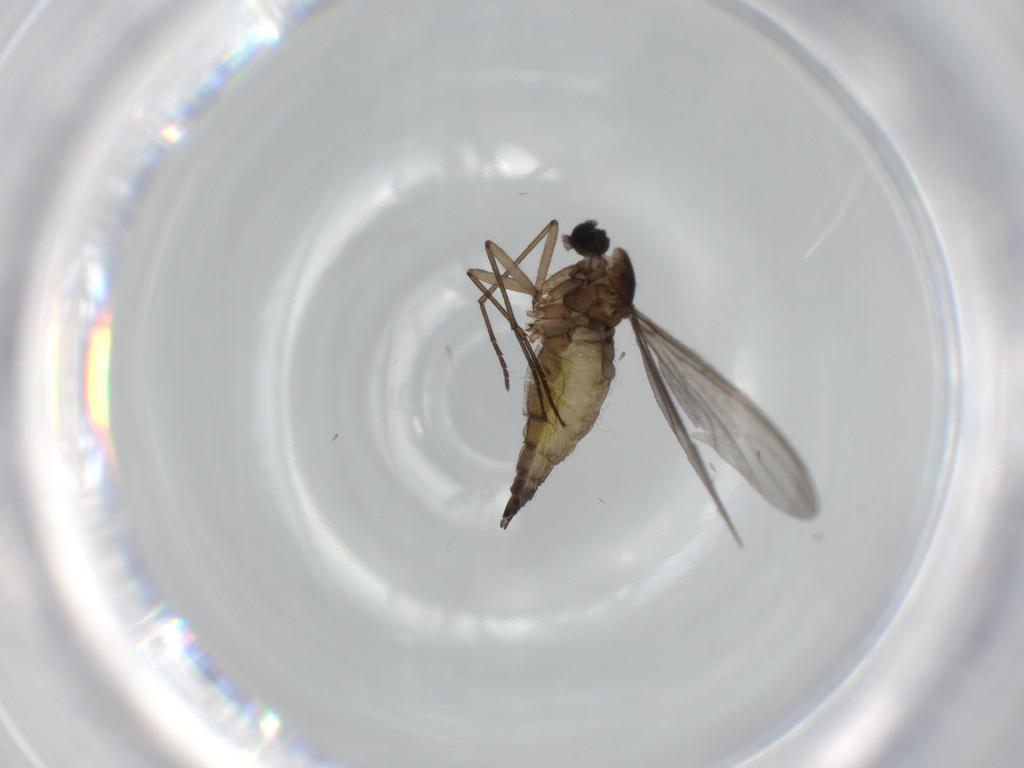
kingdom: Animalia
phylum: Arthropoda
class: Insecta
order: Diptera
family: Sciaridae
